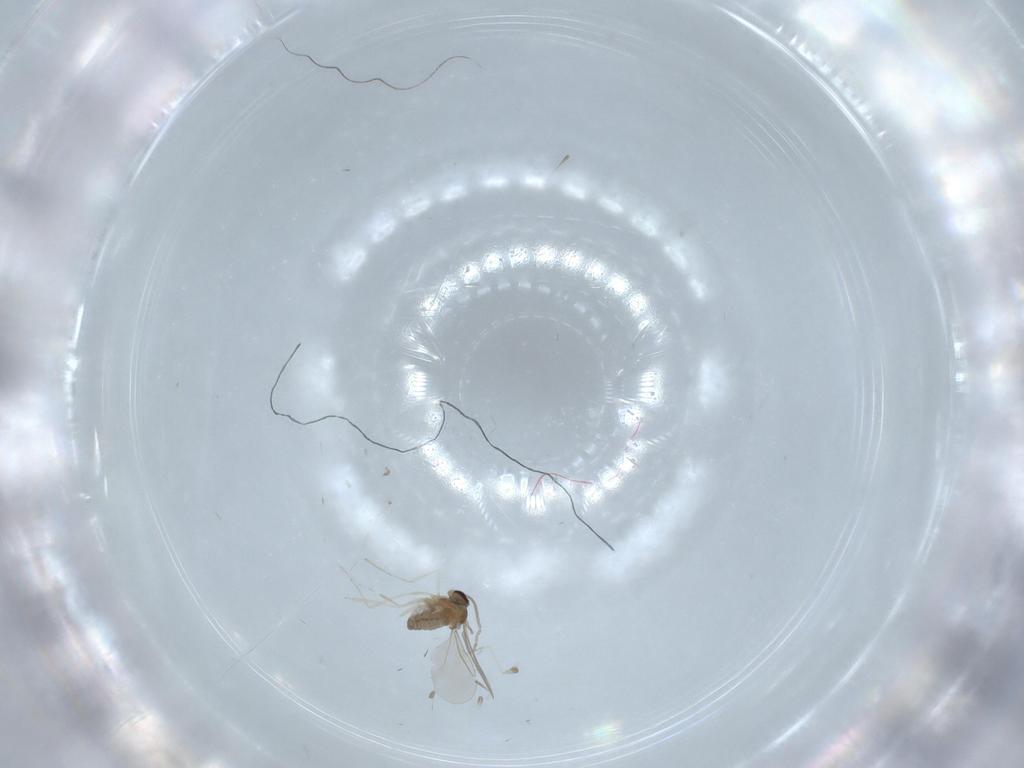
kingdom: Animalia
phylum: Arthropoda
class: Insecta
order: Diptera
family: Cecidomyiidae
